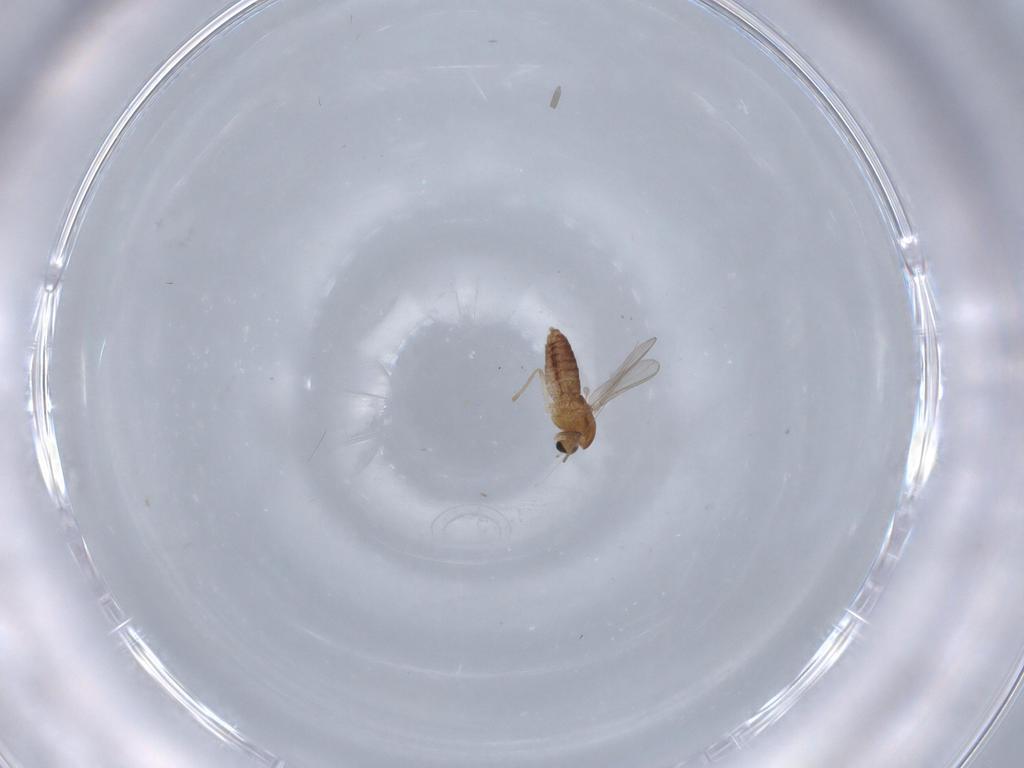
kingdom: Animalia
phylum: Arthropoda
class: Insecta
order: Diptera
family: Chironomidae
